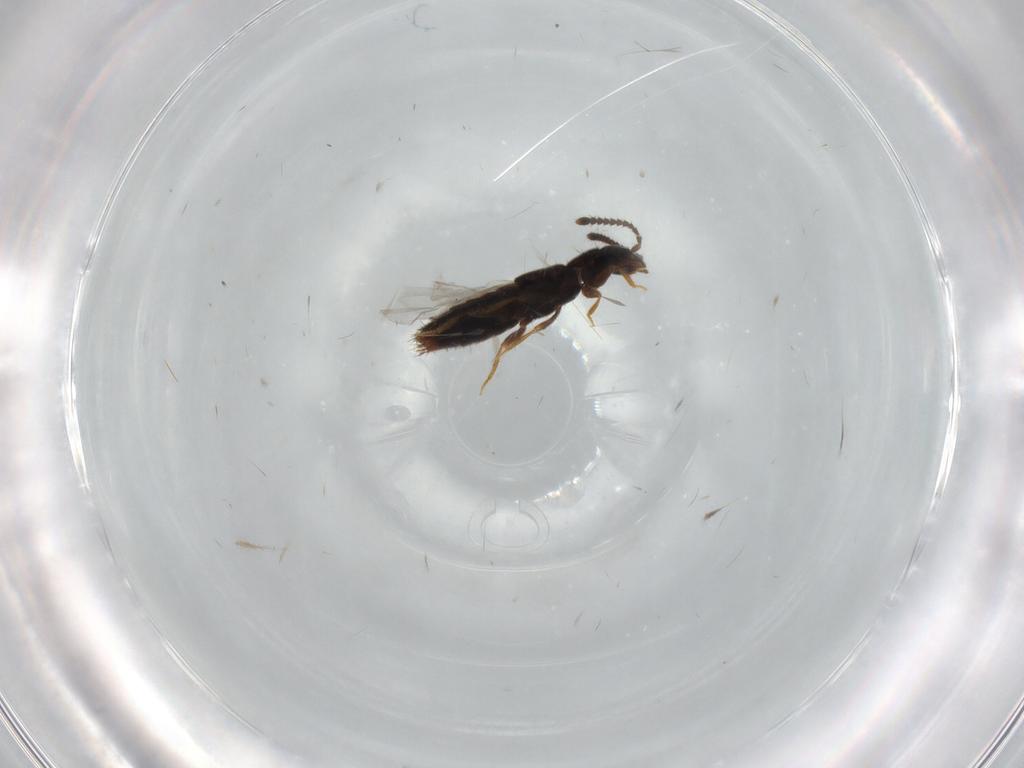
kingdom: Animalia
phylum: Arthropoda
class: Insecta
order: Coleoptera
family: Staphylinidae
